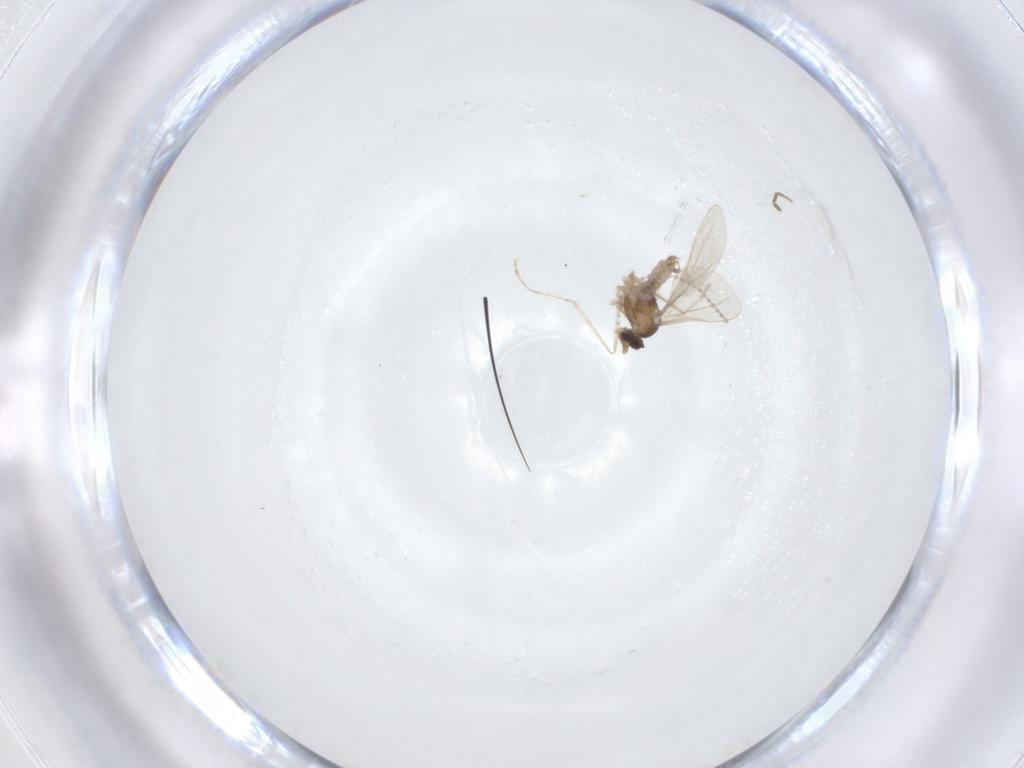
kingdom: Animalia
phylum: Arthropoda
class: Insecta
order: Diptera
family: Cecidomyiidae
